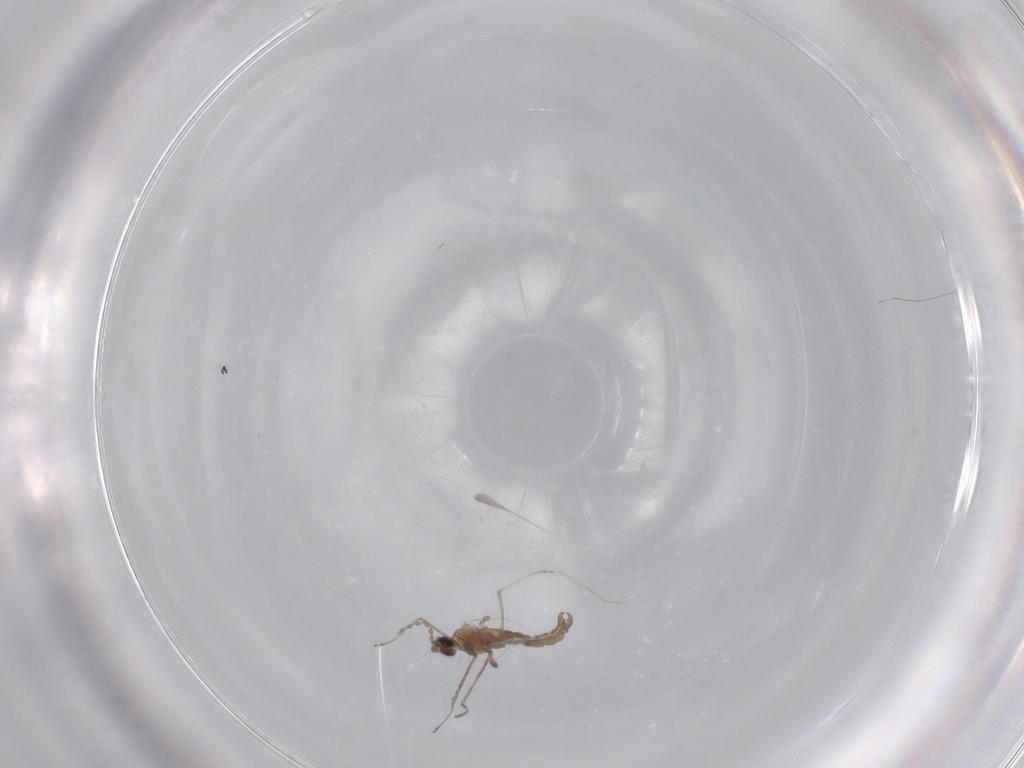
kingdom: Animalia
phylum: Arthropoda
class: Insecta
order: Diptera
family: Cecidomyiidae
